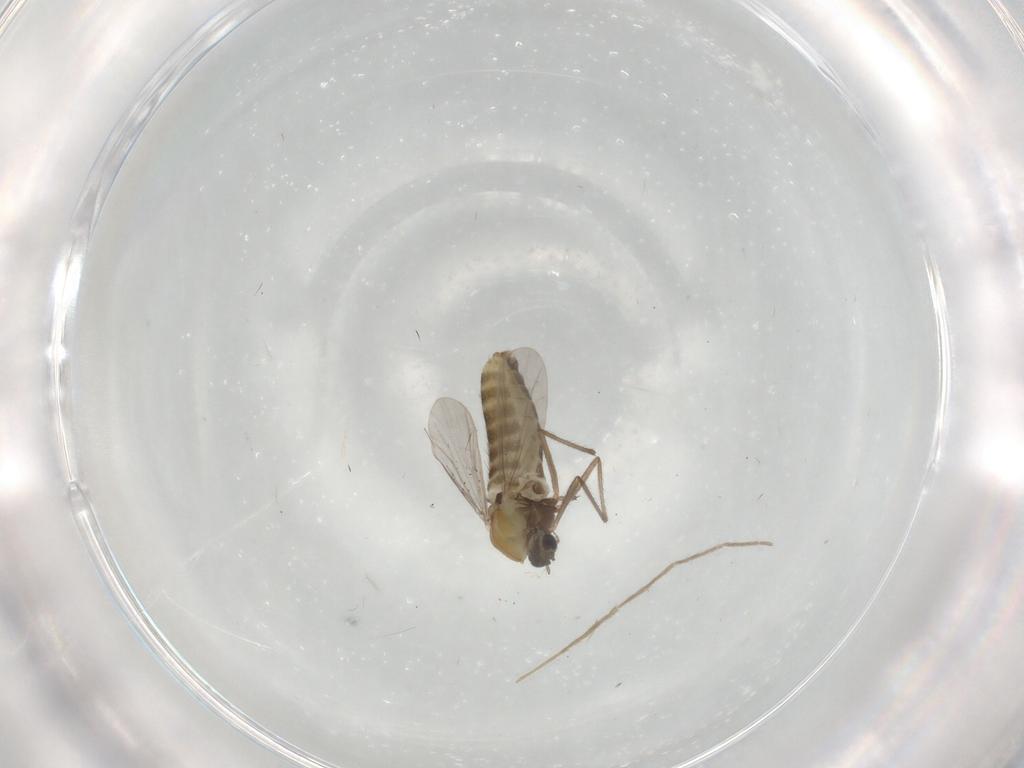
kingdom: Animalia
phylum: Arthropoda
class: Insecta
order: Diptera
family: Chironomidae
